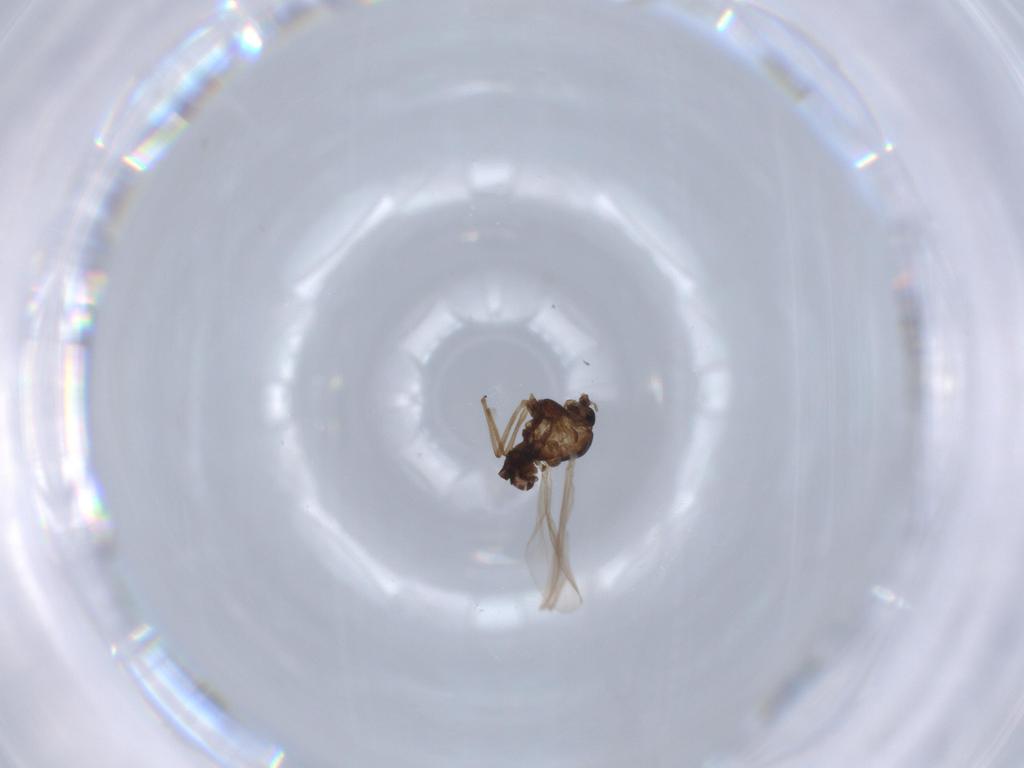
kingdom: Animalia
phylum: Arthropoda
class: Insecta
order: Diptera
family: Chironomidae
